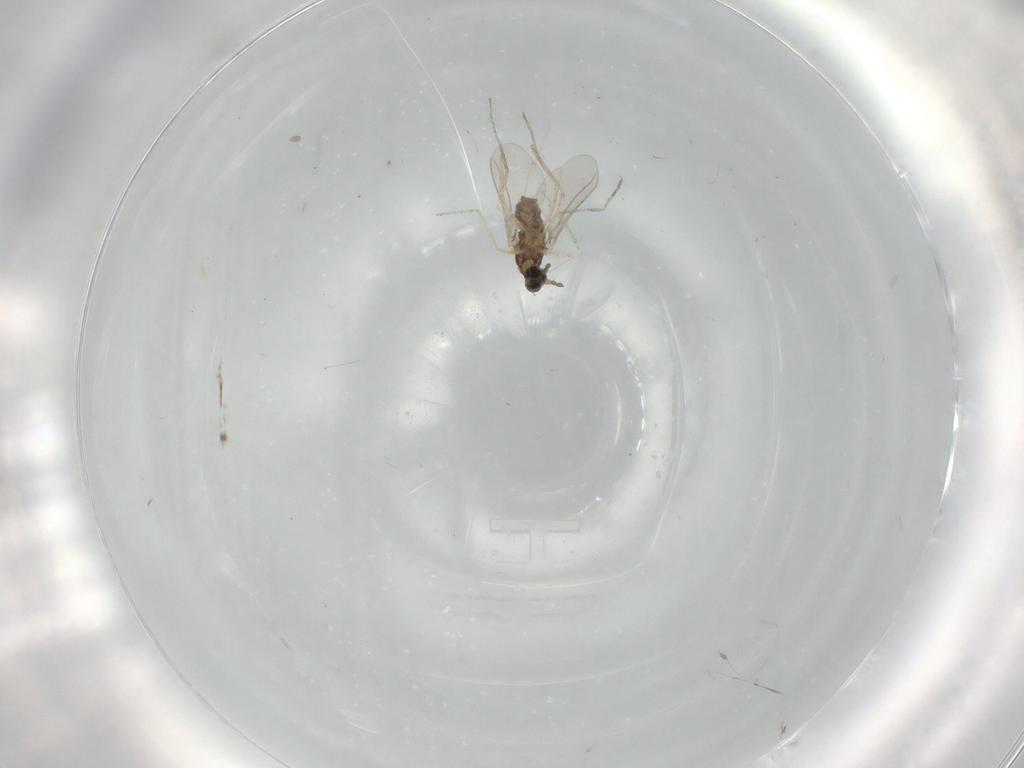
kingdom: Animalia
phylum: Arthropoda
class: Insecta
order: Diptera
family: Cecidomyiidae
